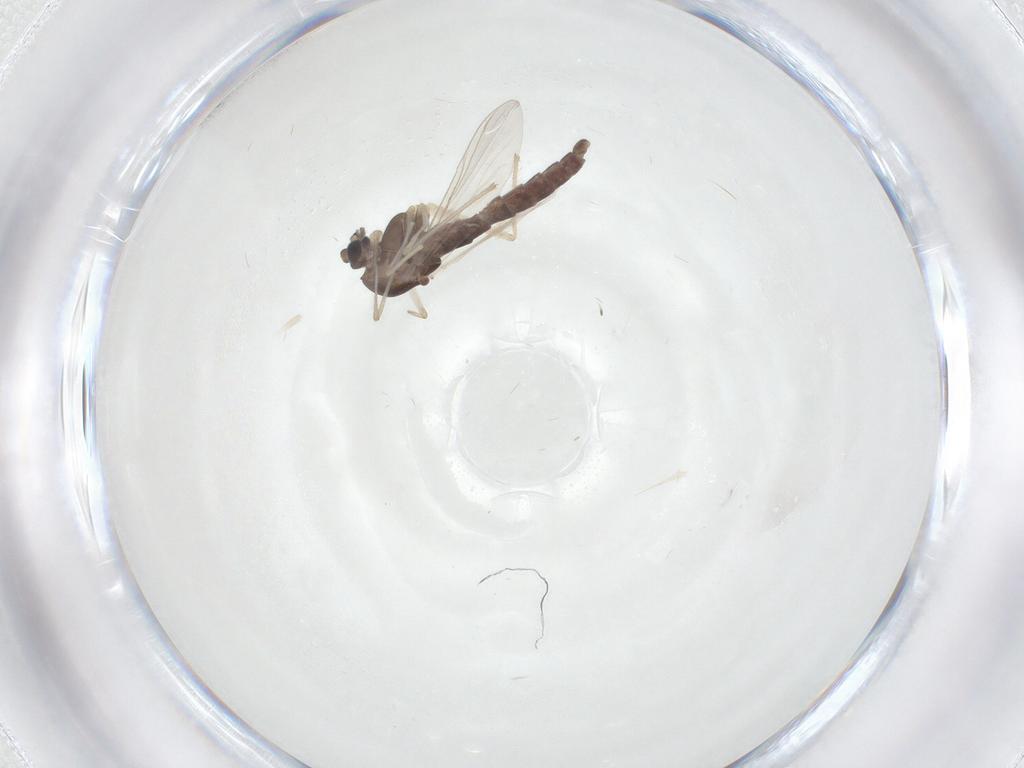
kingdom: Animalia
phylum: Arthropoda
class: Insecta
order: Diptera
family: Chironomidae
